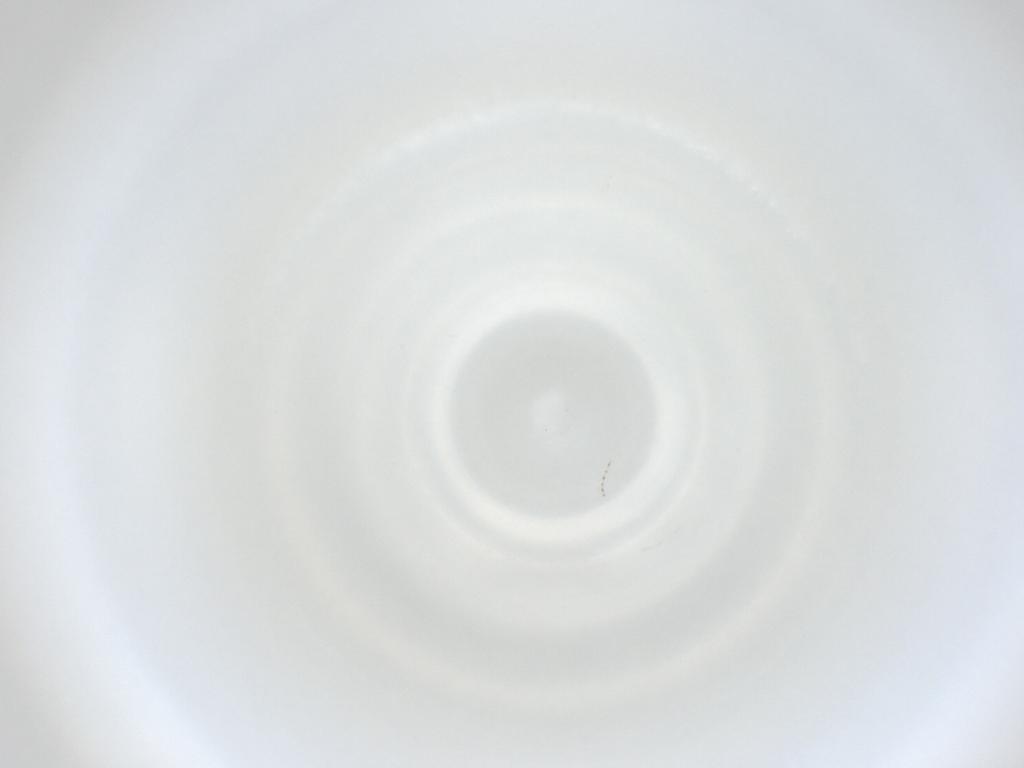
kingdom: Animalia
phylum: Arthropoda
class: Insecta
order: Diptera
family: Cecidomyiidae
